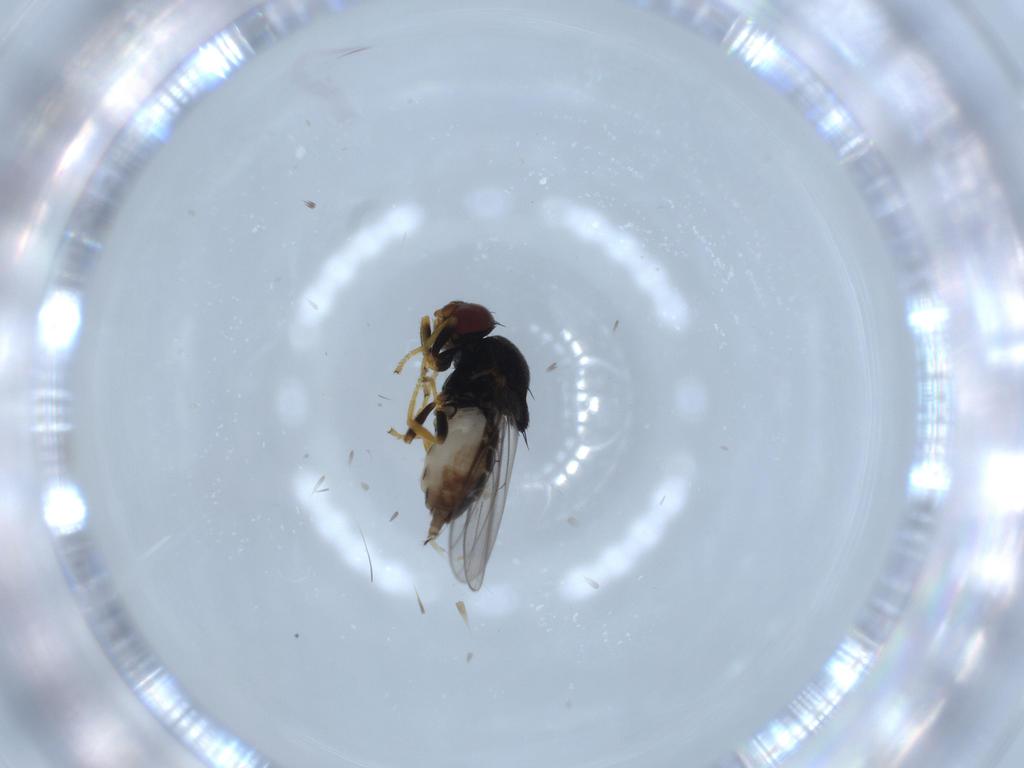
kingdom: Animalia
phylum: Arthropoda
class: Insecta
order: Diptera
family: Chloropidae
